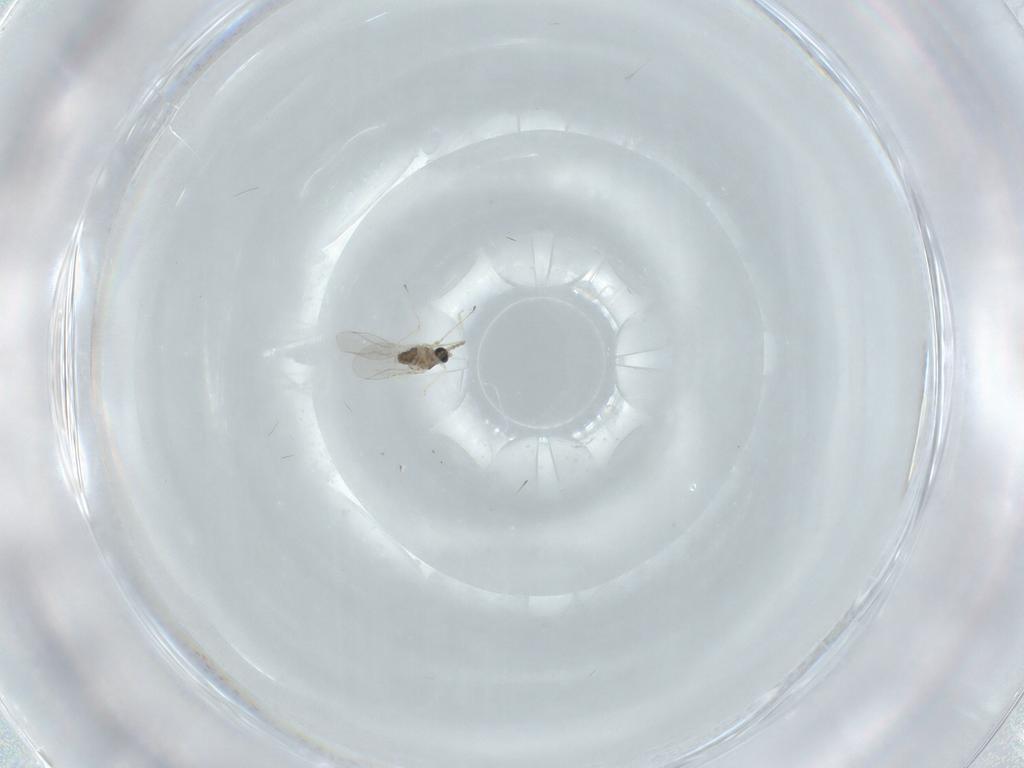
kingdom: Animalia
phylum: Arthropoda
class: Insecta
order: Diptera
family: Cecidomyiidae
